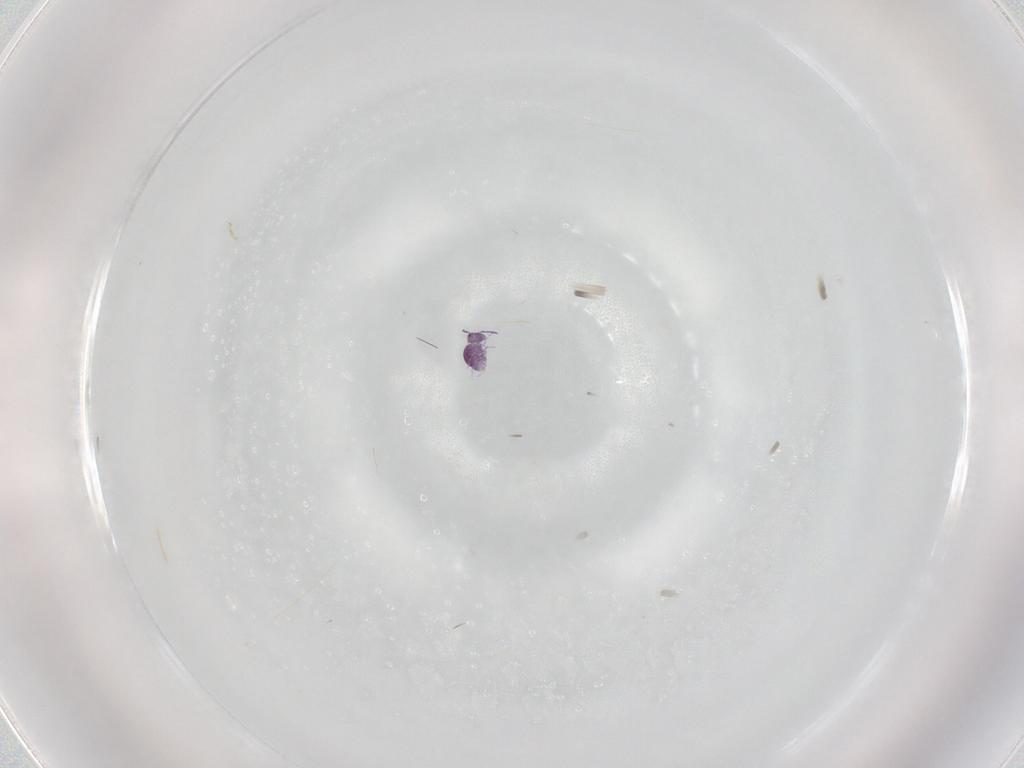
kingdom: Animalia
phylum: Arthropoda
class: Collembola
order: Symphypleona
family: Sminthurididae
